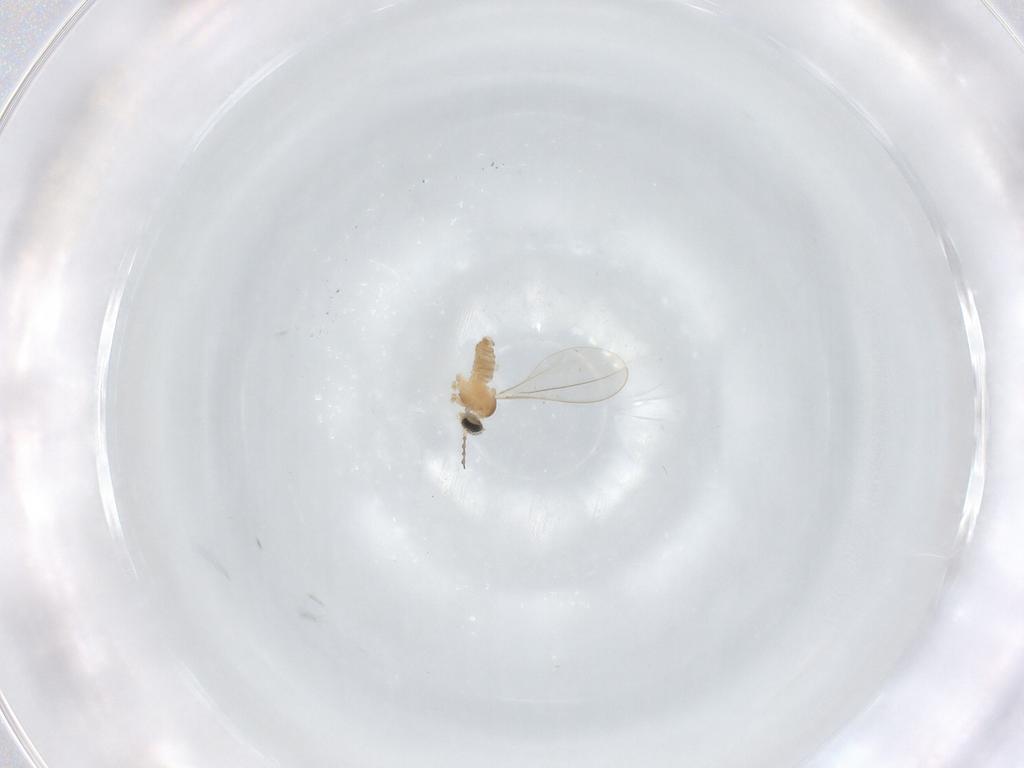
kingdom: Animalia
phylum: Arthropoda
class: Insecta
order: Diptera
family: Cecidomyiidae
